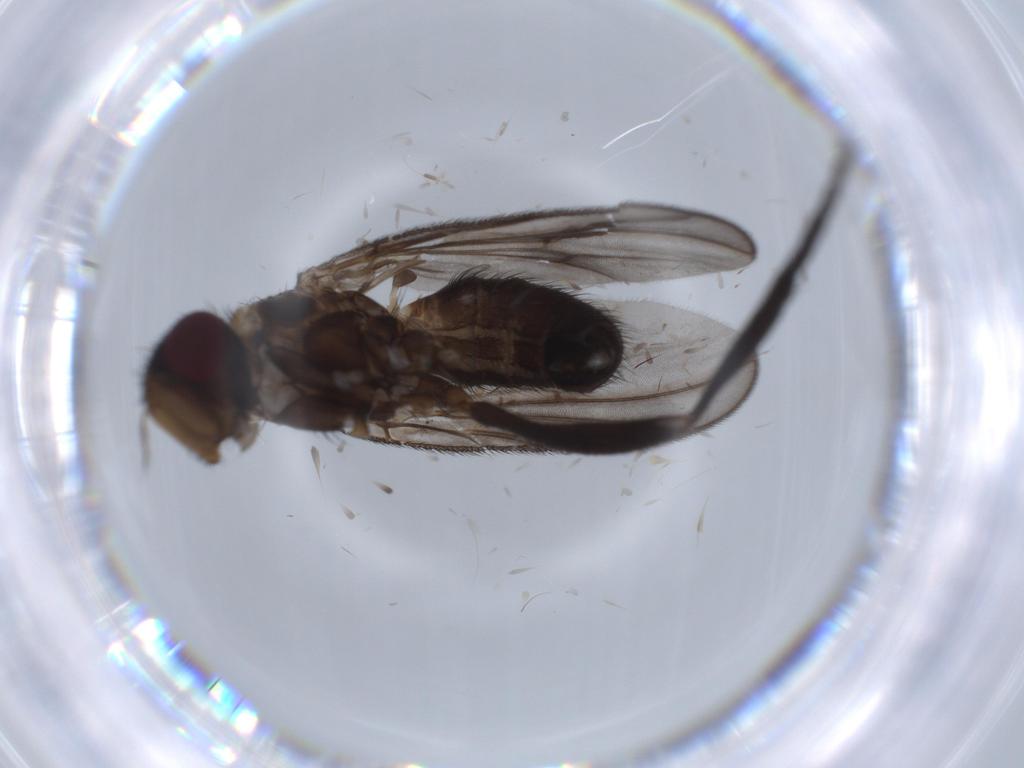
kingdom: Animalia
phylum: Arthropoda
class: Insecta
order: Diptera
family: Calliphoridae
